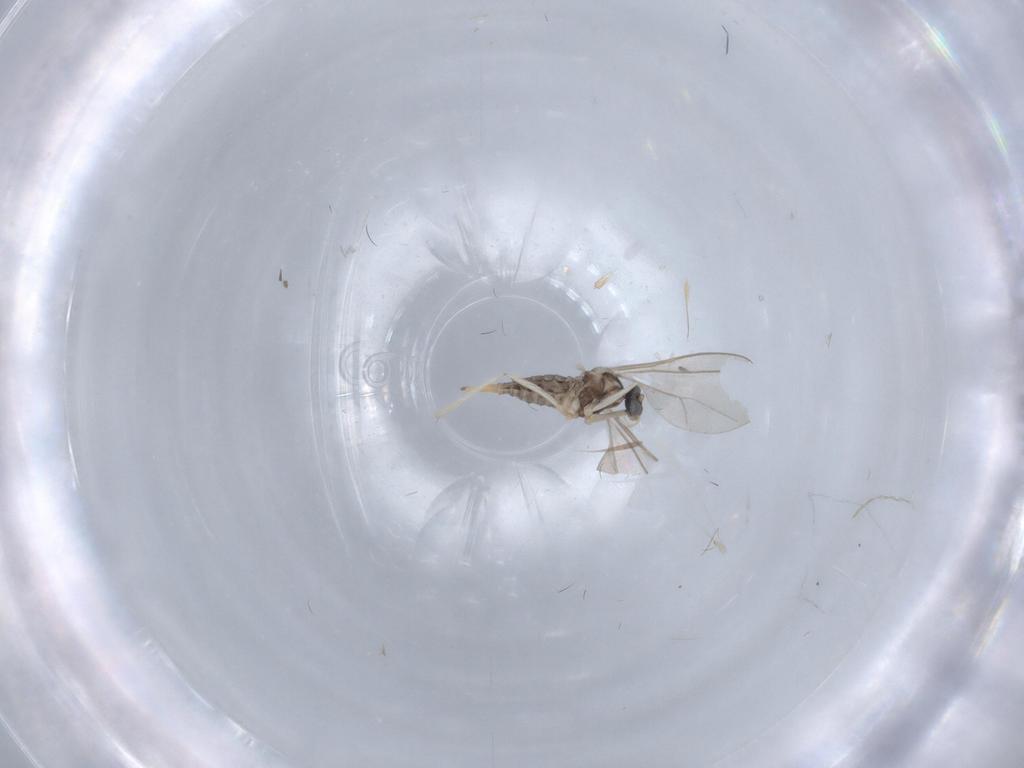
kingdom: Animalia
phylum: Arthropoda
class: Insecta
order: Diptera
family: Cecidomyiidae
